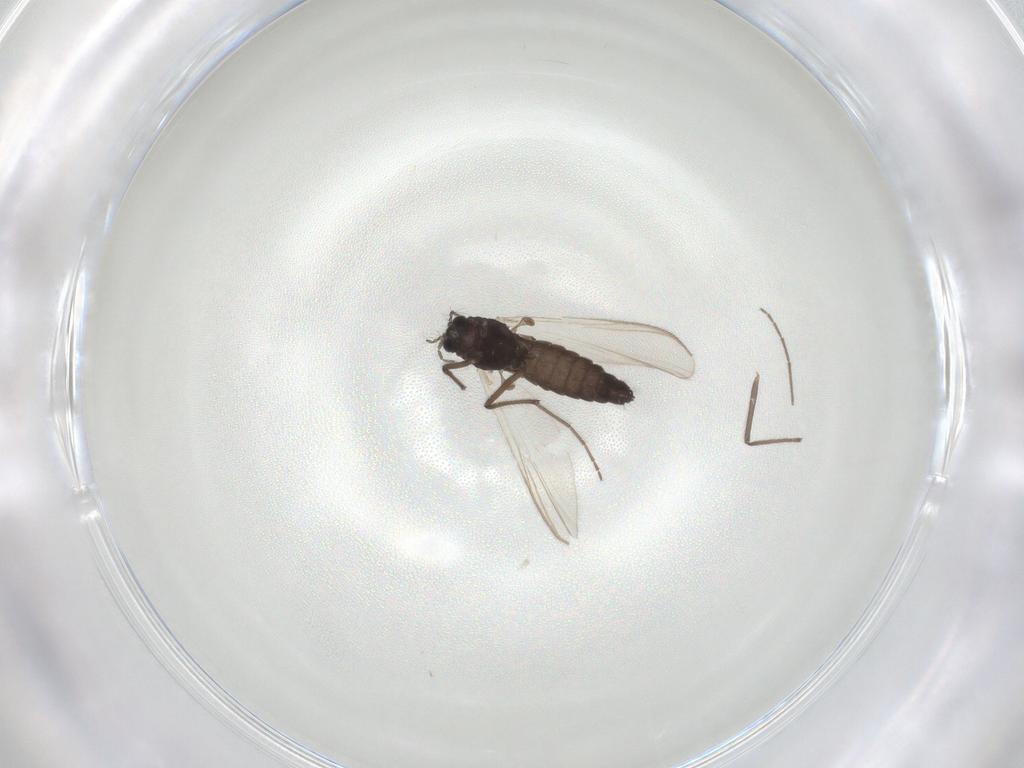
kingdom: Animalia
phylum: Arthropoda
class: Insecta
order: Diptera
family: Chironomidae
